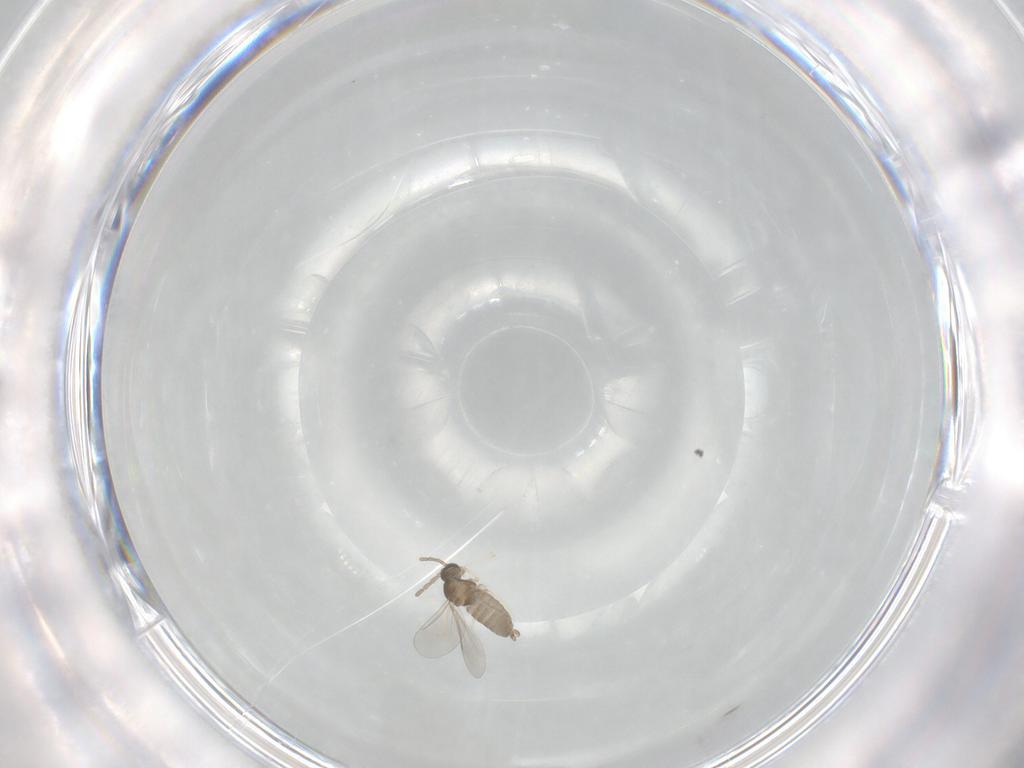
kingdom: Animalia
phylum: Arthropoda
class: Insecta
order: Diptera
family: Cecidomyiidae
